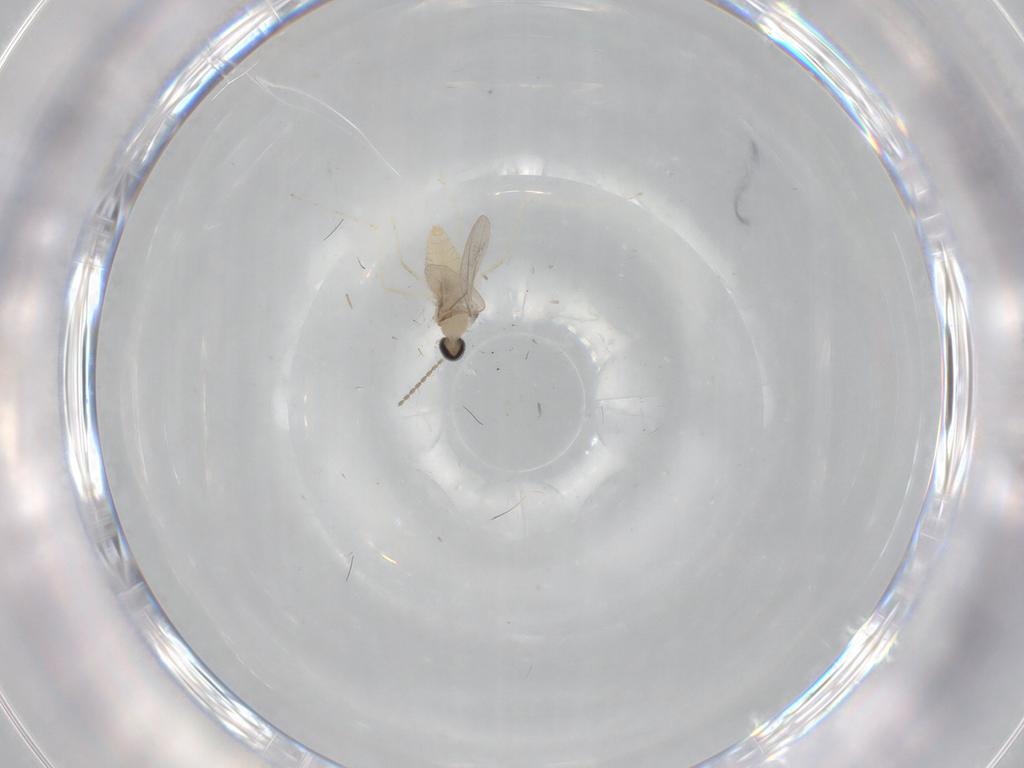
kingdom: Animalia
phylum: Arthropoda
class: Insecta
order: Diptera
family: Cecidomyiidae
